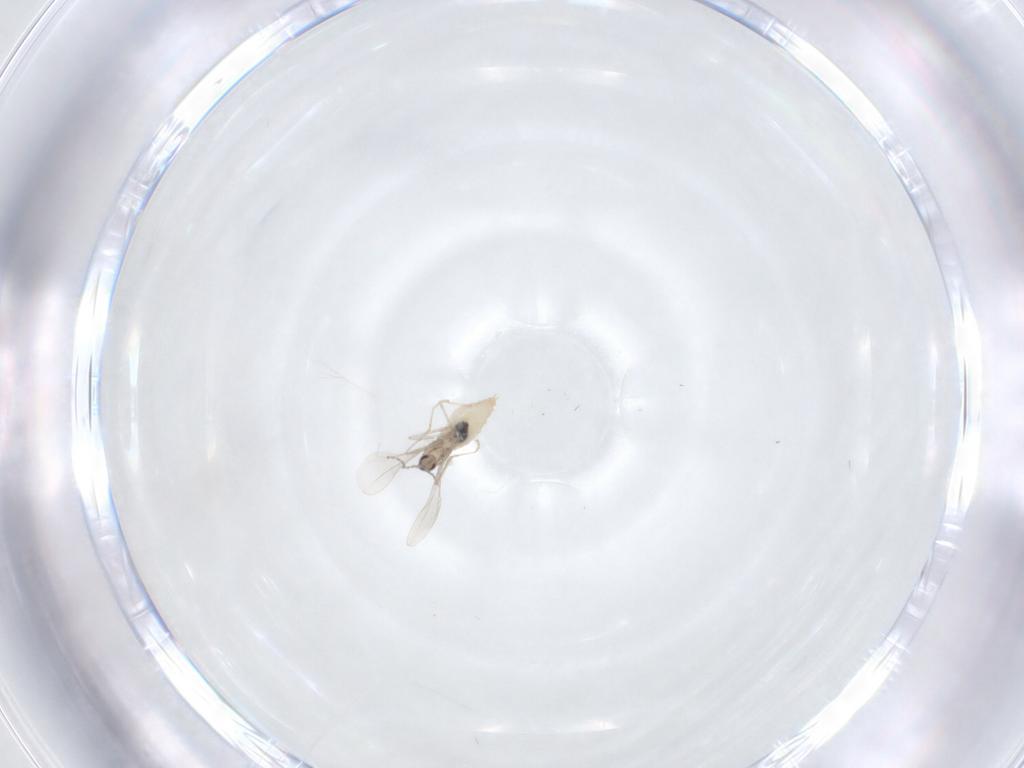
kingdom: Animalia
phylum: Arthropoda
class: Insecta
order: Diptera
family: Cecidomyiidae
